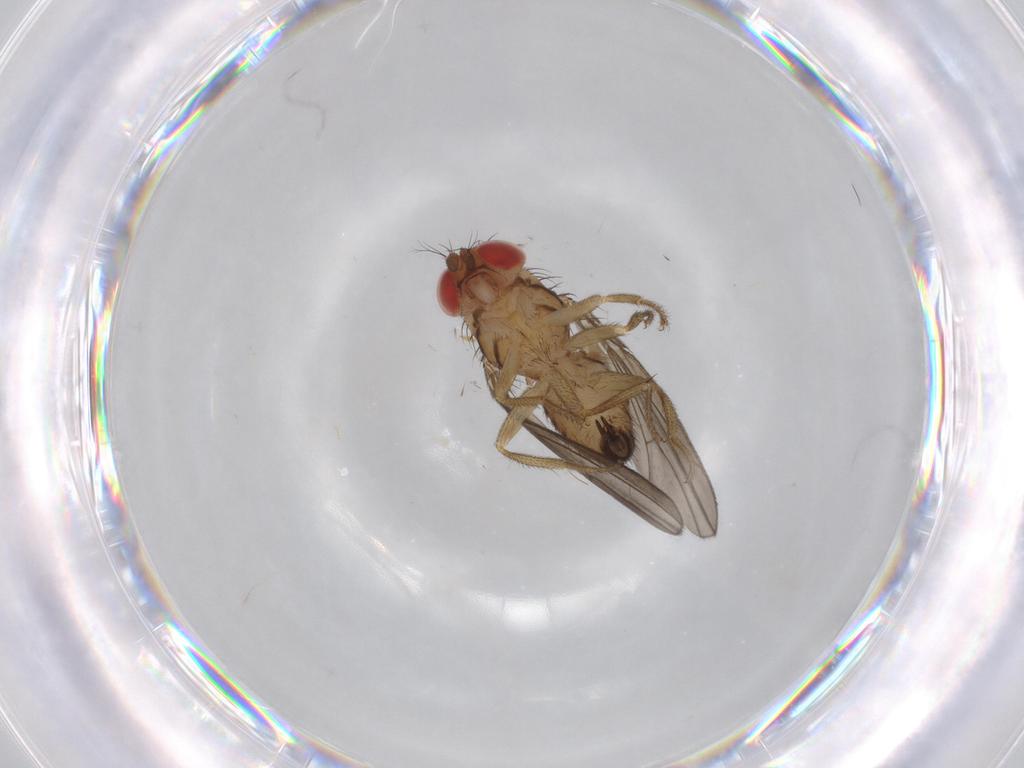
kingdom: Animalia
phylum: Arthropoda
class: Insecta
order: Diptera
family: Drosophilidae
